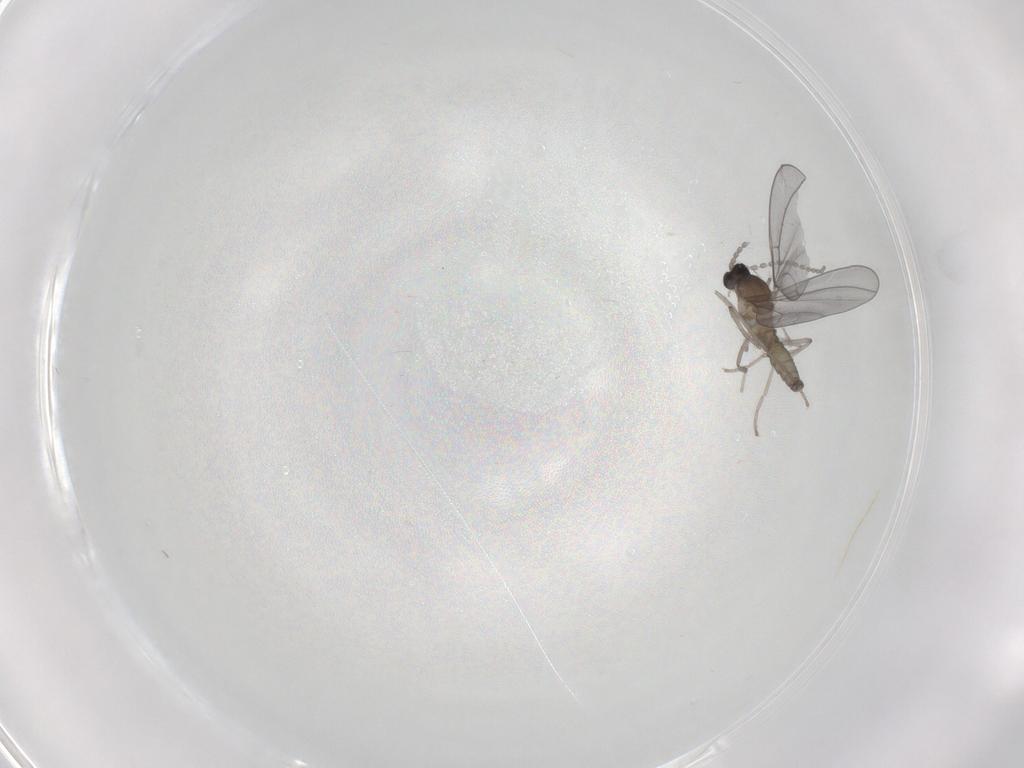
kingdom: Animalia
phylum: Arthropoda
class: Insecta
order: Diptera
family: Cecidomyiidae
